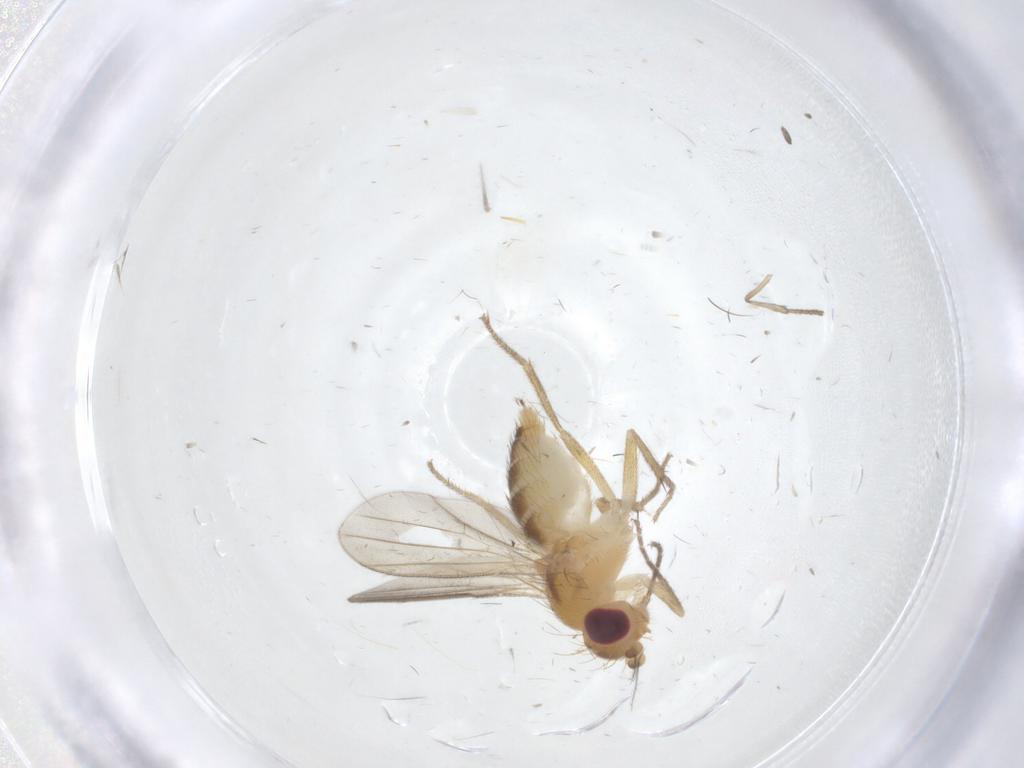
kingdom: Animalia
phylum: Arthropoda
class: Insecta
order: Diptera
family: Clusiidae
